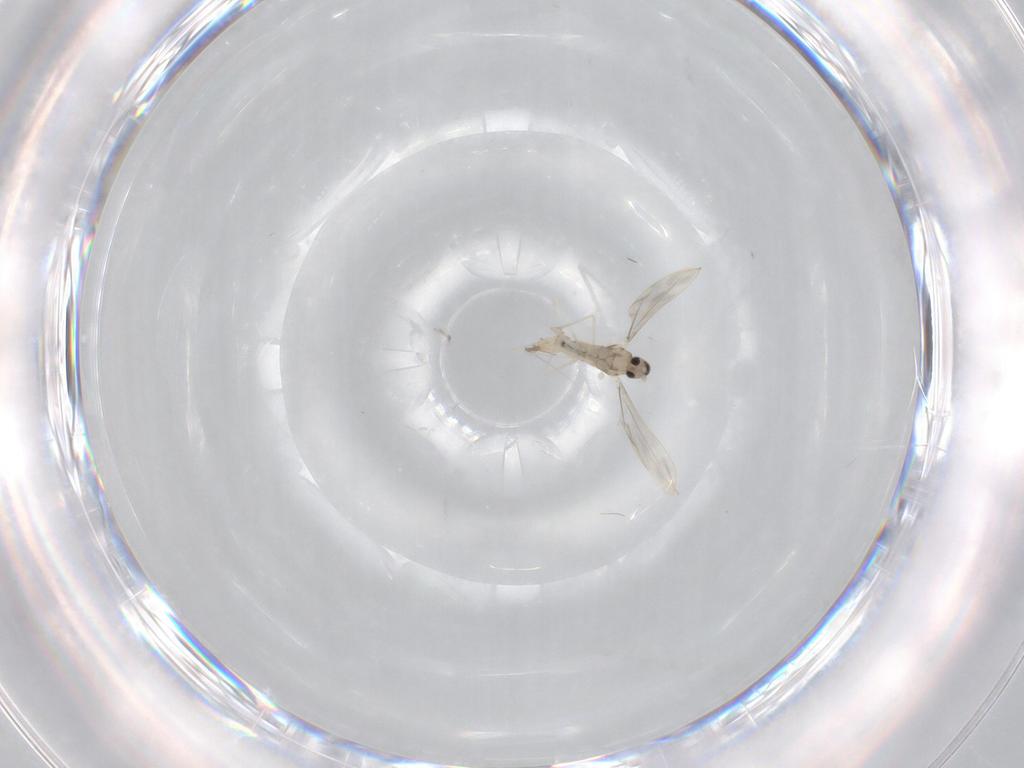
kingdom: Animalia
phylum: Arthropoda
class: Insecta
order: Diptera
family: Cecidomyiidae
